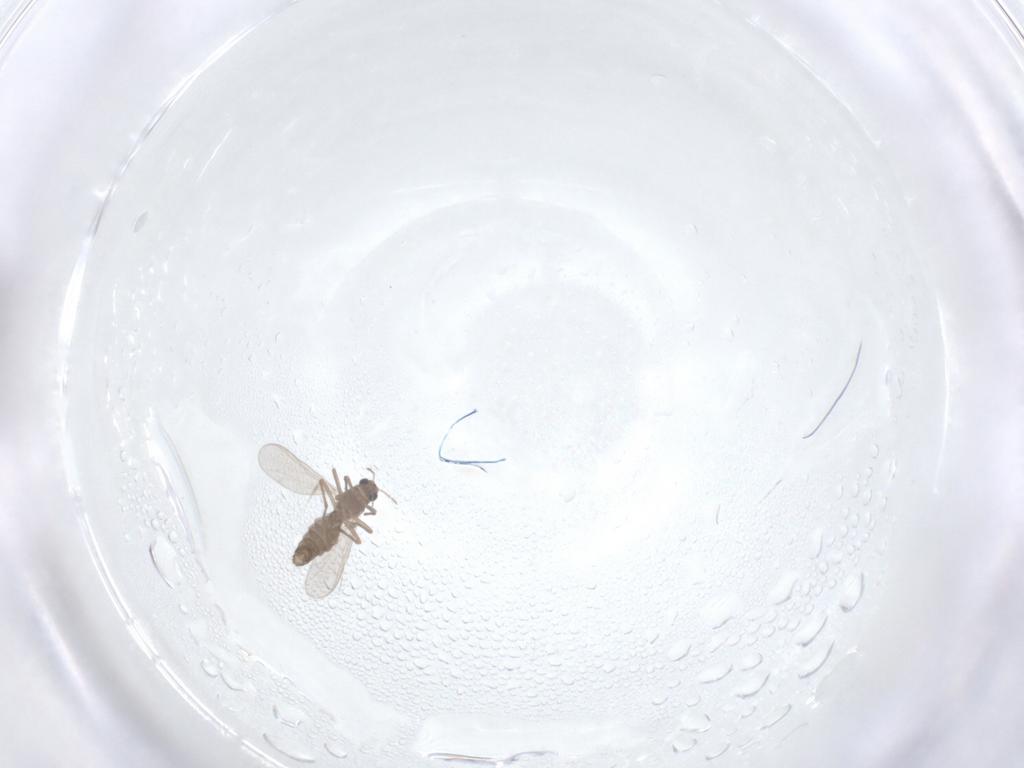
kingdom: Animalia
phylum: Arthropoda
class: Insecta
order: Diptera
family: Chironomidae
